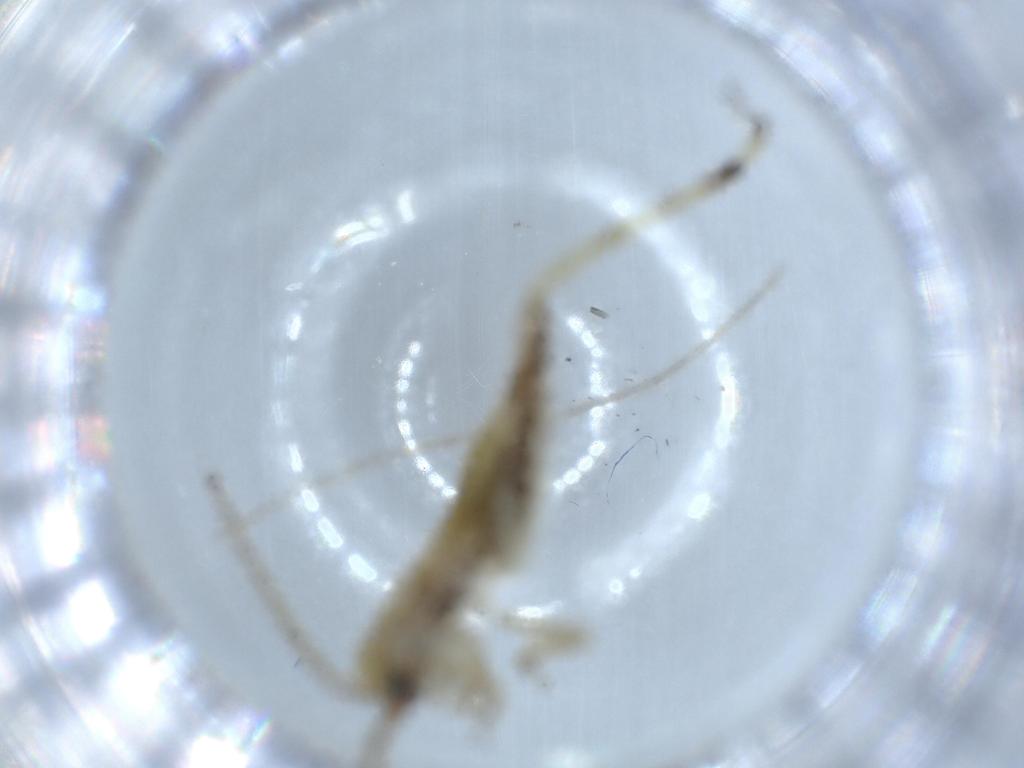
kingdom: Animalia
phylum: Arthropoda
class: Insecta
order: Orthoptera
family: Gryllidae
